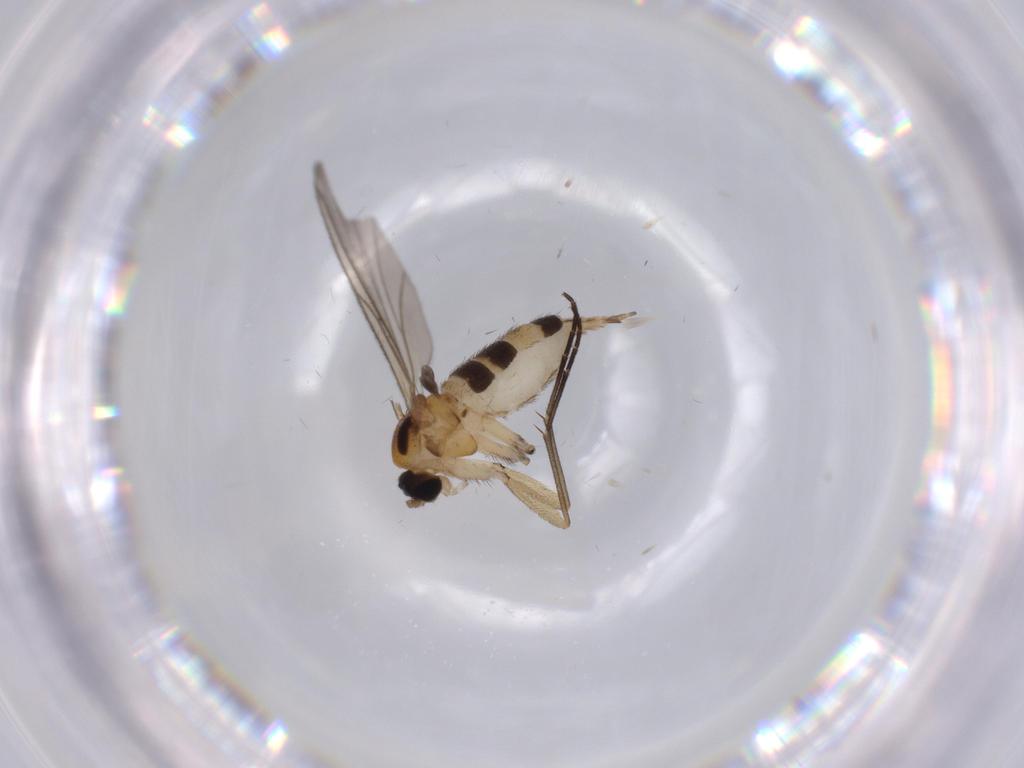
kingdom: Animalia
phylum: Arthropoda
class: Insecta
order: Diptera
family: Sciaridae
